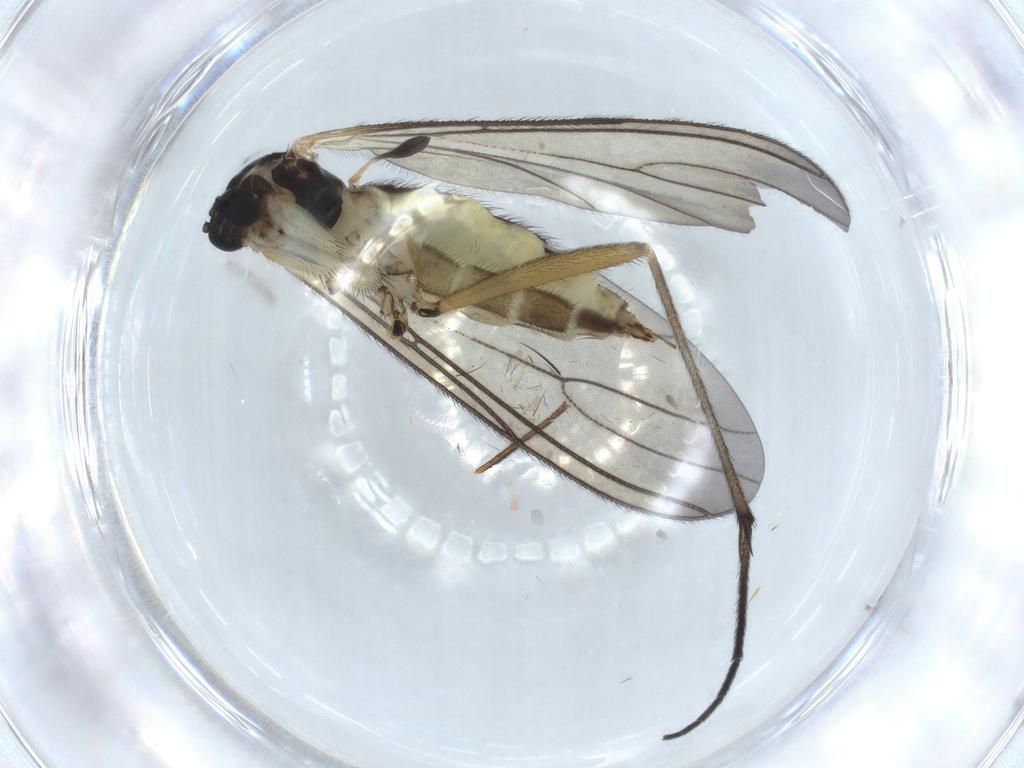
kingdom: Animalia
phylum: Arthropoda
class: Insecta
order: Diptera
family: Sciaridae
